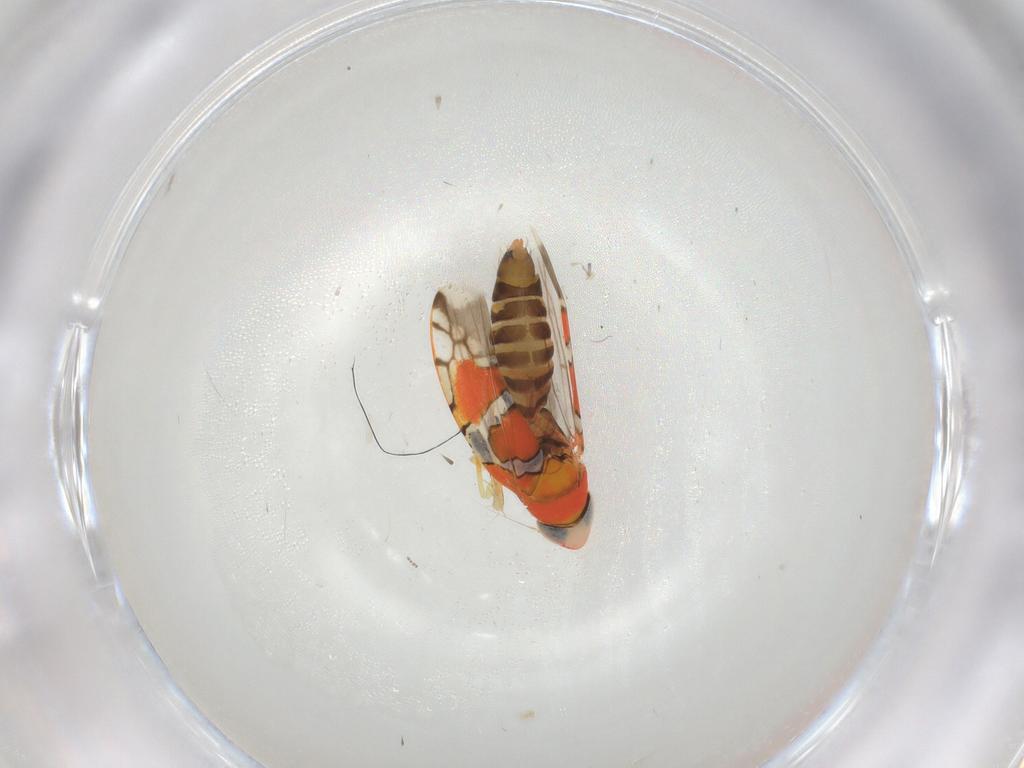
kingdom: Animalia
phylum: Arthropoda
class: Insecta
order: Hemiptera
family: Cicadellidae
